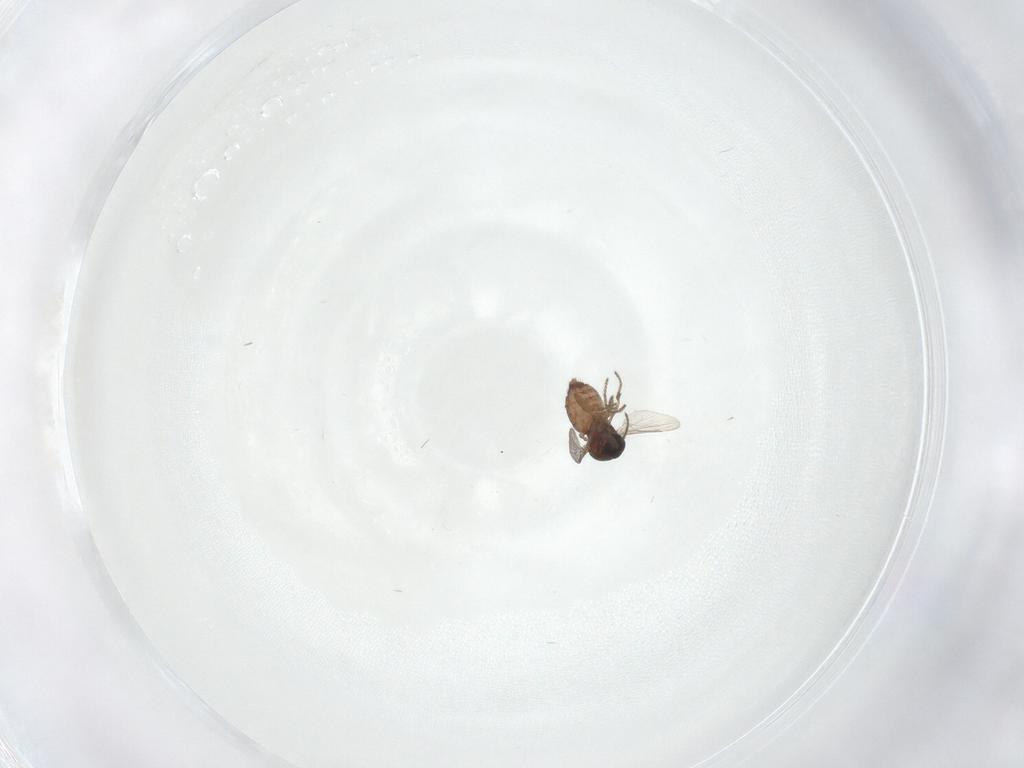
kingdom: Animalia
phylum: Arthropoda
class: Insecta
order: Diptera
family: Ceratopogonidae
